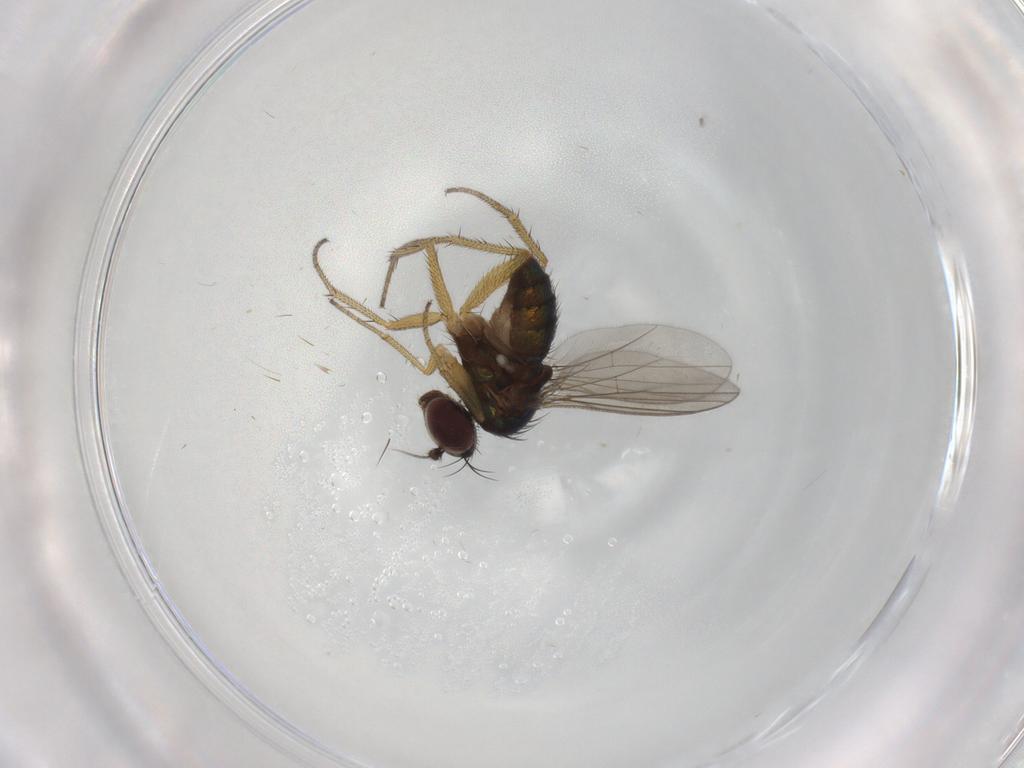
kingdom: Animalia
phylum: Arthropoda
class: Insecta
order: Diptera
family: Dolichopodidae
